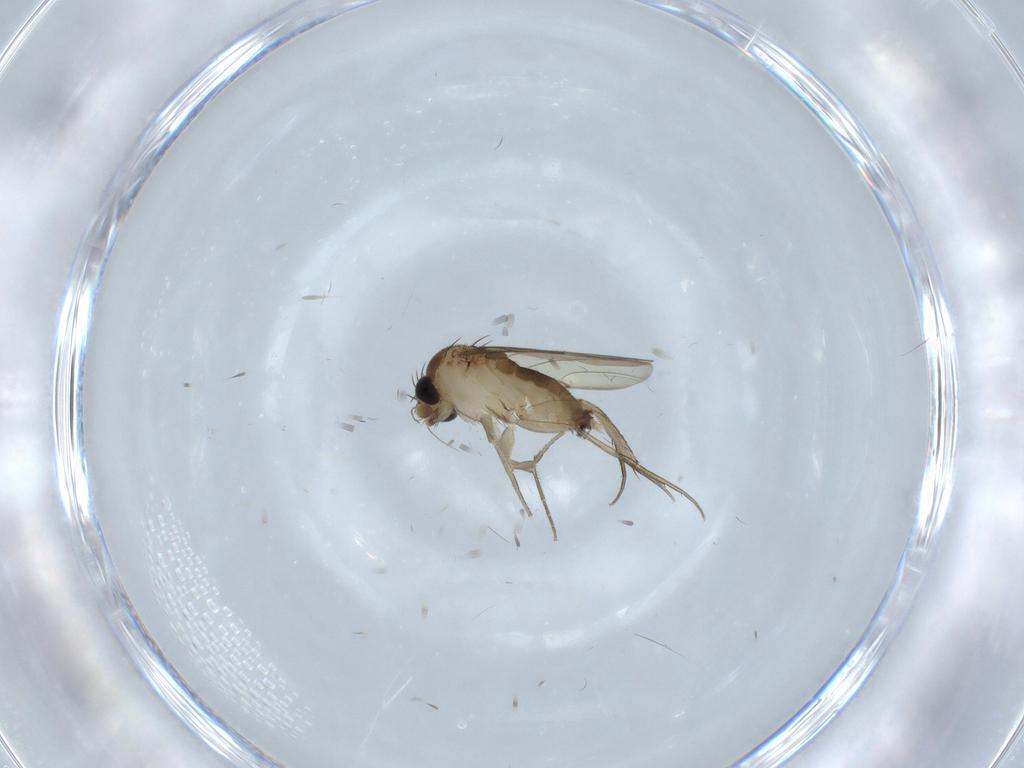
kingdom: Animalia
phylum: Arthropoda
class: Insecta
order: Diptera
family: Phoridae
